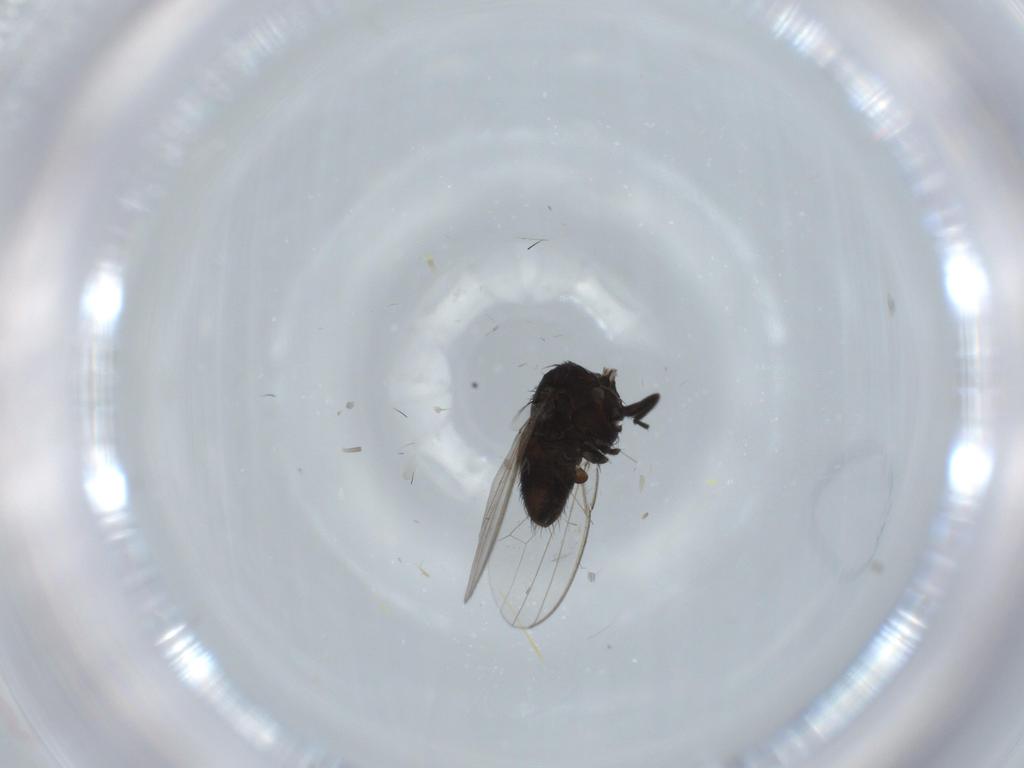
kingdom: Animalia
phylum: Arthropoda
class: Insecta
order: Diptera
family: Milichiidae
